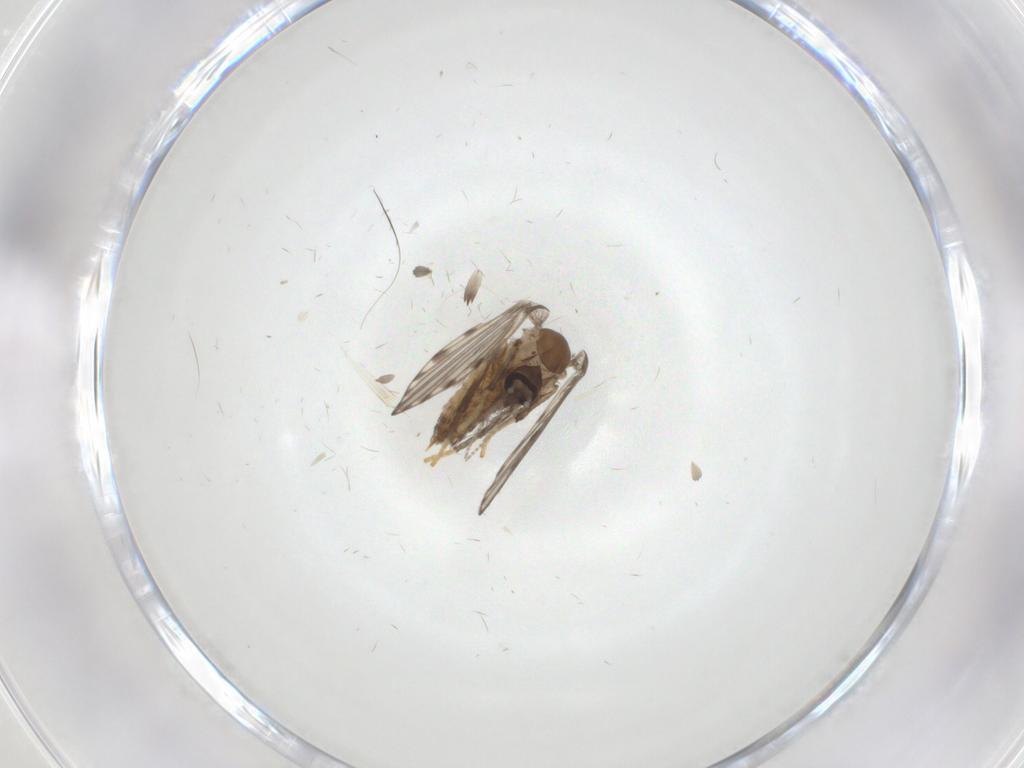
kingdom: Animalia
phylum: Arthropoda
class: Insecta
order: Diptera
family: Psychodidae
